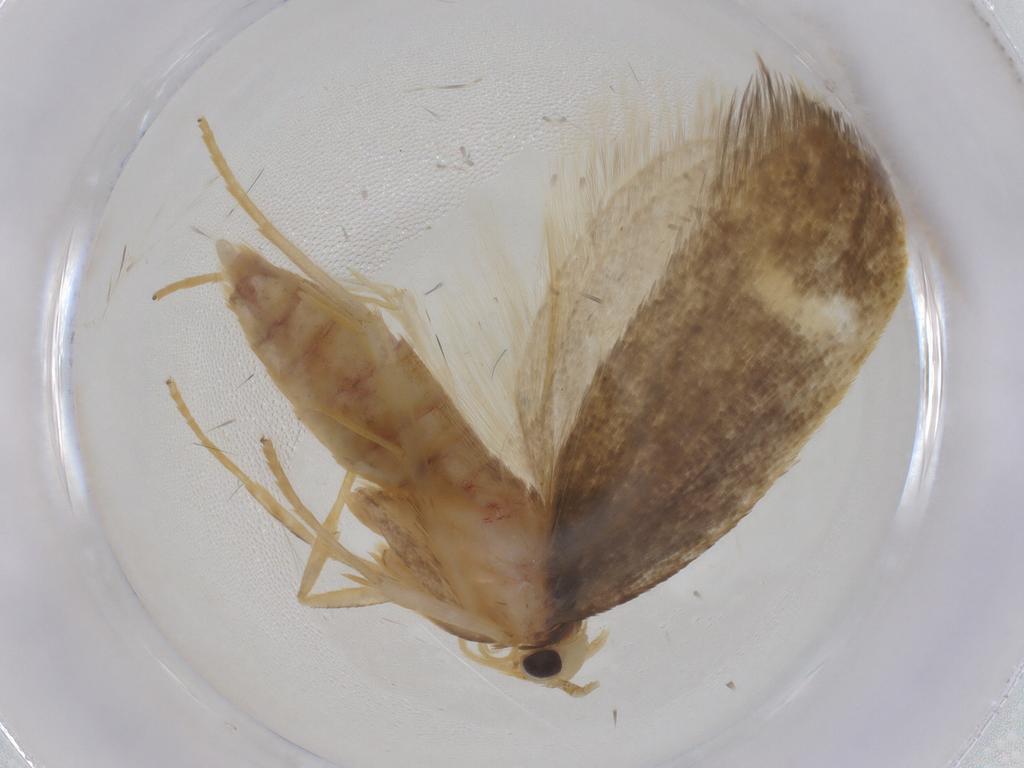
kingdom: Animalia
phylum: Arthropoda
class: Insecta
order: Lepidoptera
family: Lecithoceridae
